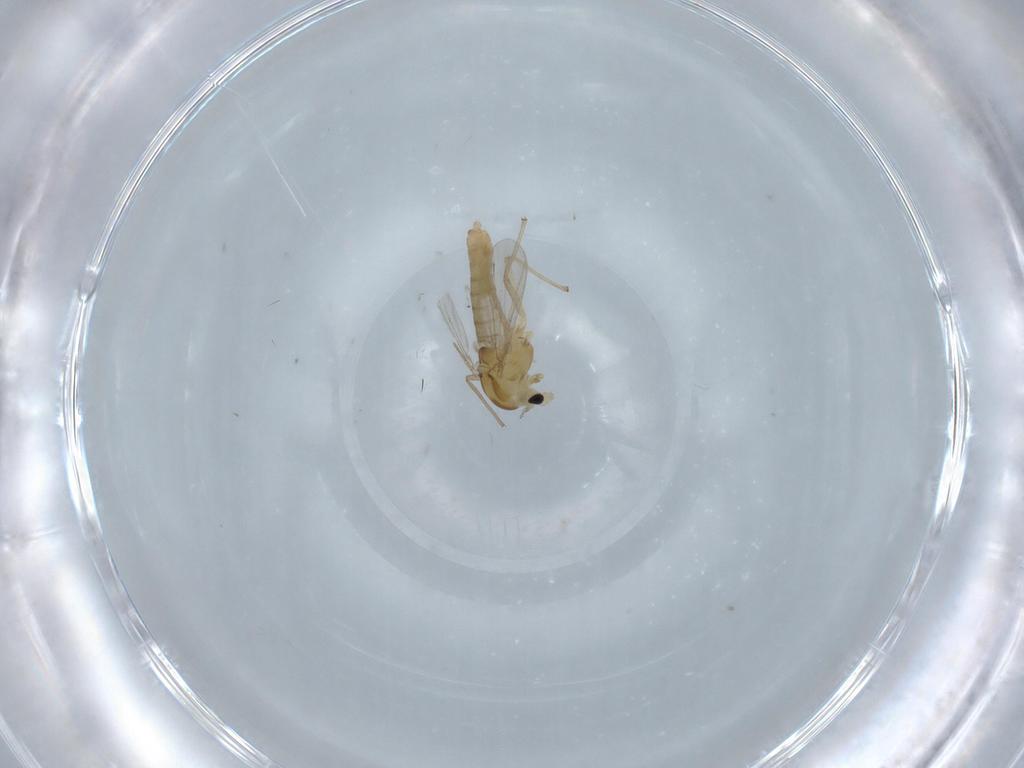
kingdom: Animalia
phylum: Arthropoda
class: Insecta
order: Diptera
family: Chironomidae
